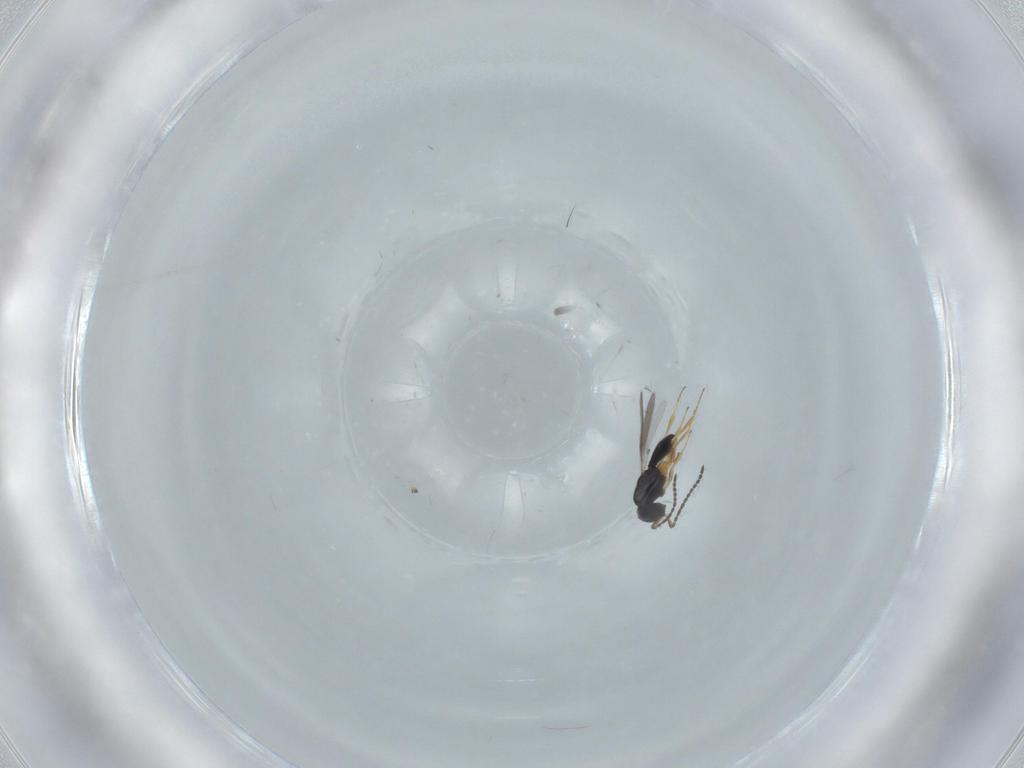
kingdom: Animalia
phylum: Arthropoda
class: Insecta
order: Hymenoptera
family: Scelionidae
